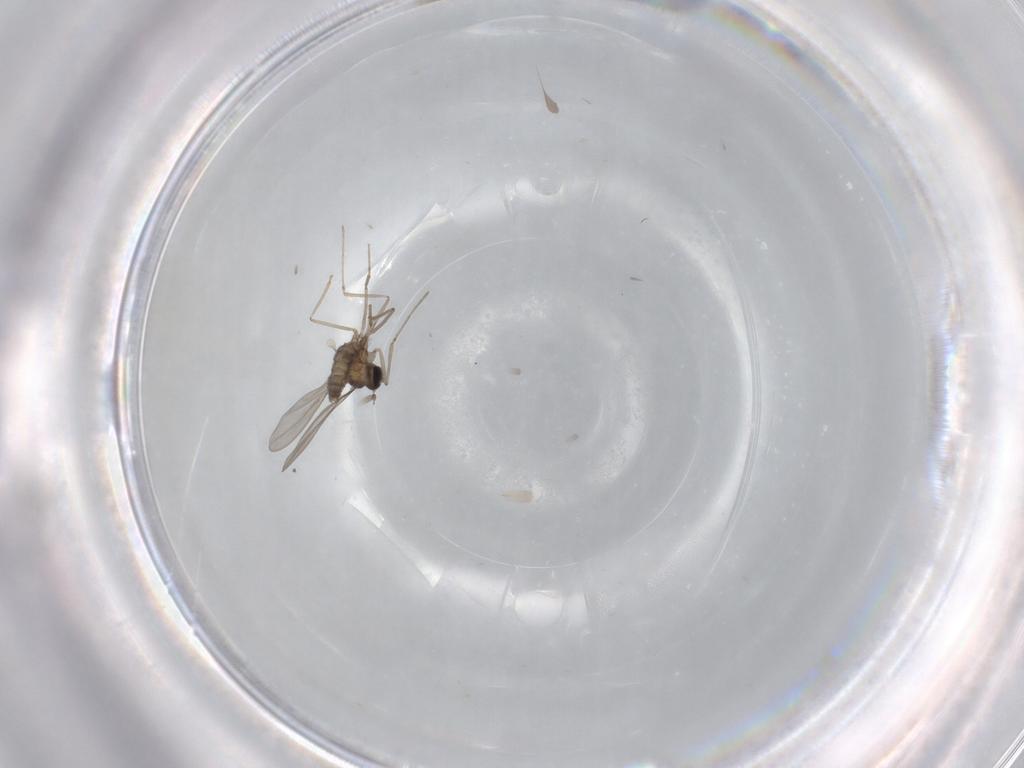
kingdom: Animalia
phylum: Arthropoda
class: Insecta
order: Diptera
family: Cecidomyiidae
